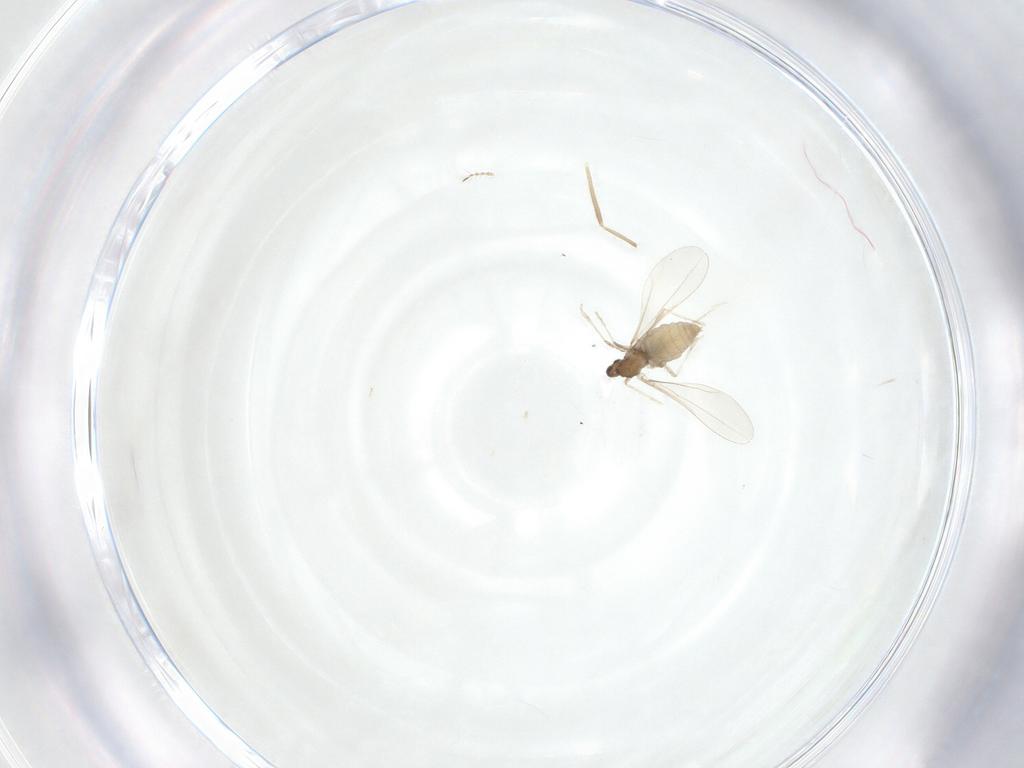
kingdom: Animalia
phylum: Arthropoda
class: Insecta
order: Diptera
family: Cecidomyiidae
